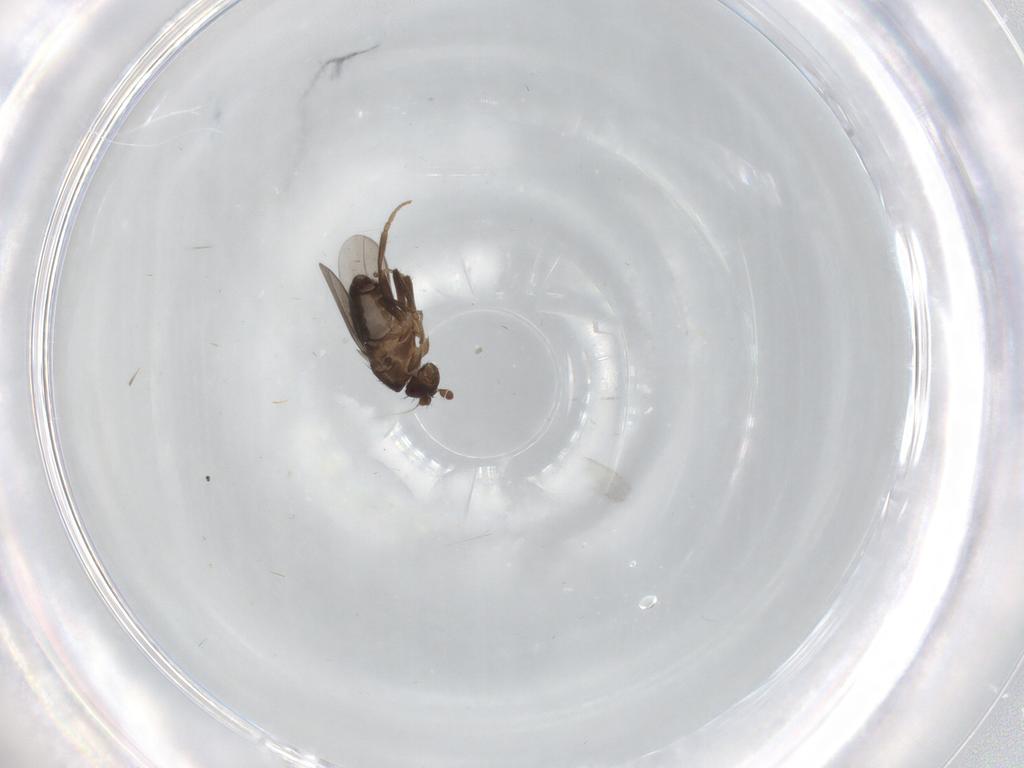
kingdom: Animalia
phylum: Arthropoda
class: Insecta
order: Diptera
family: Sphaeroceridae
